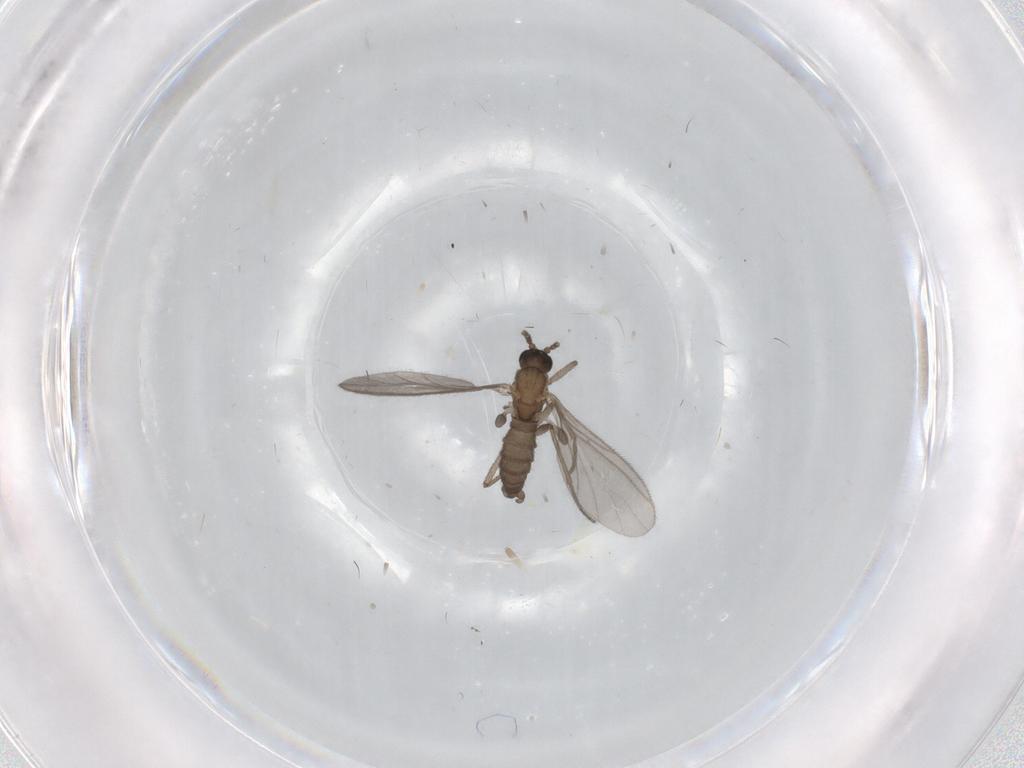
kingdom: Animalia
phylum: Arthropoda
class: Insecta
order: Diptera
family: Sciaridae
